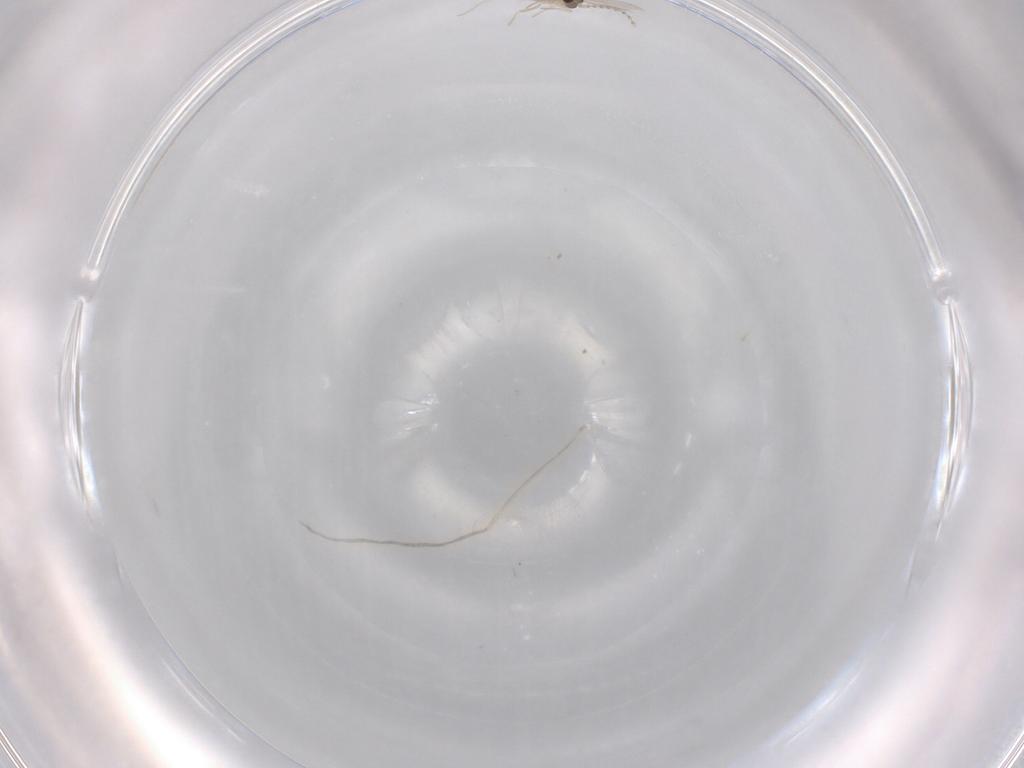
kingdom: Animalia
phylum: Arthropoda
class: Insecta
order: Diptera
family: Cecidomyiidae
